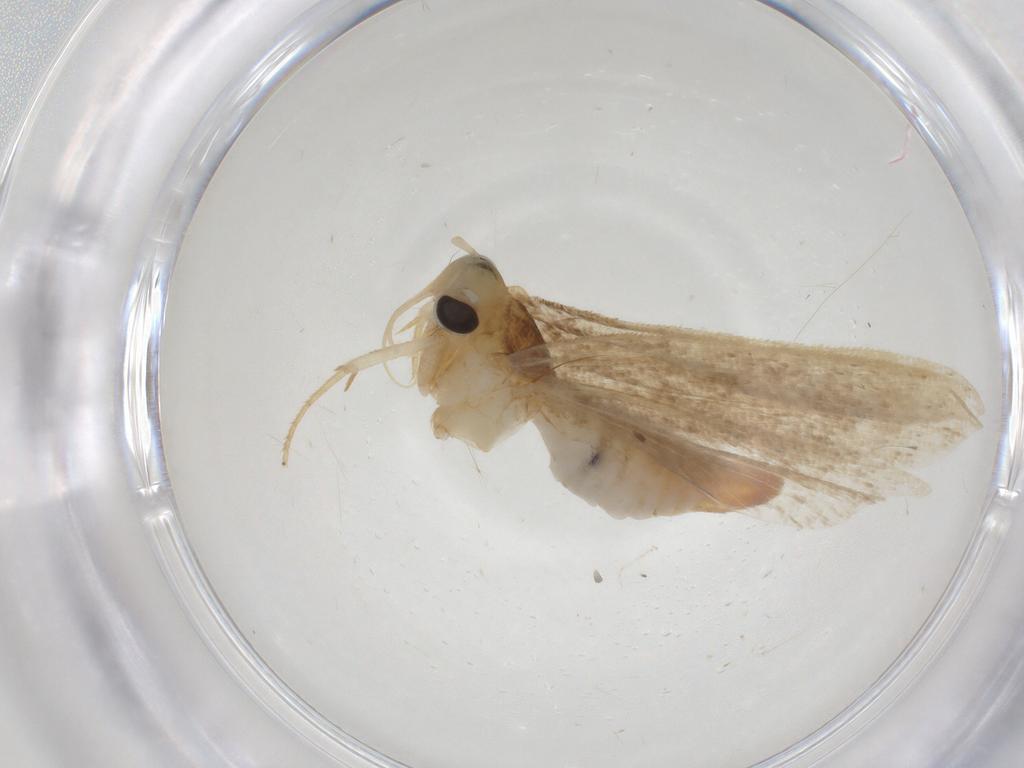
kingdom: Animalia
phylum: Arthropoda
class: Insecta
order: Lepidoptera
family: Gelechiidae
